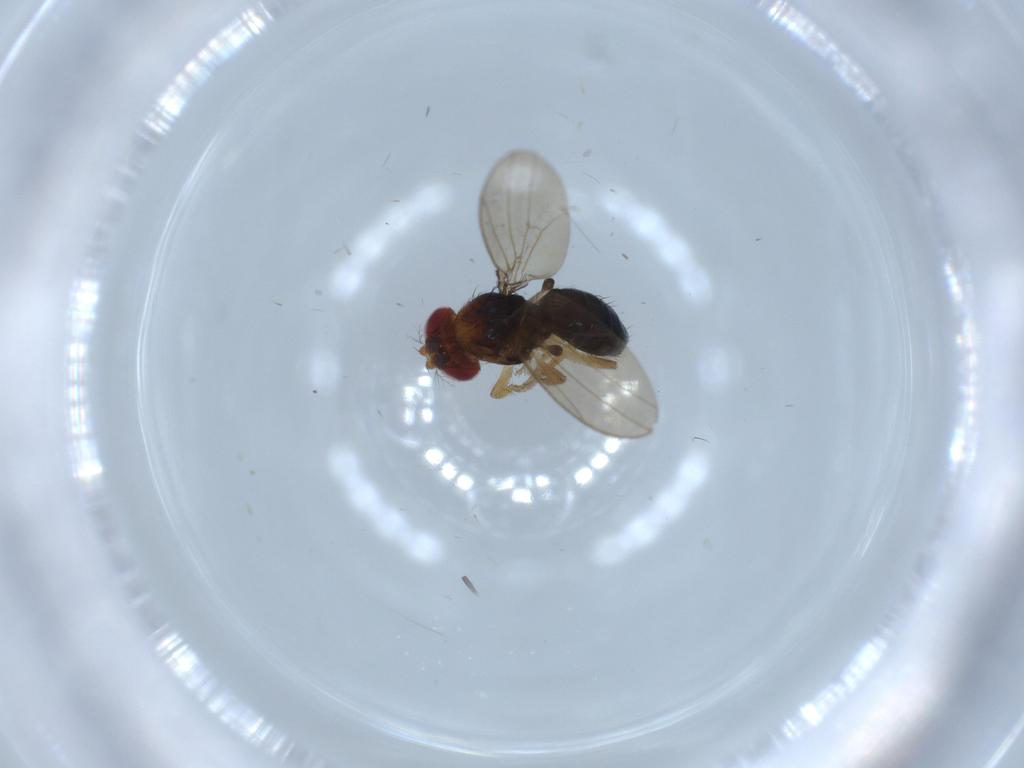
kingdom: Animalia
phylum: Arthropoda
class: Insecta
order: Diptera
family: Drosophilidae
